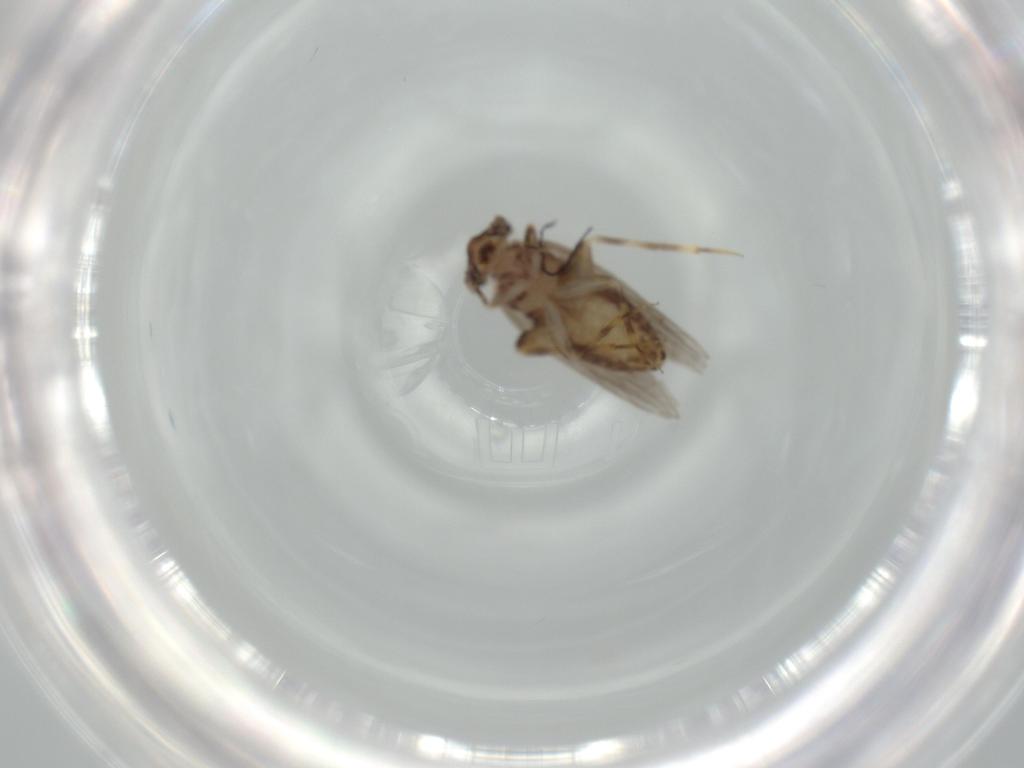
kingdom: Animalia
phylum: Arthropoda
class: Insecta
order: Psocodea
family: Lepidopsocidae
